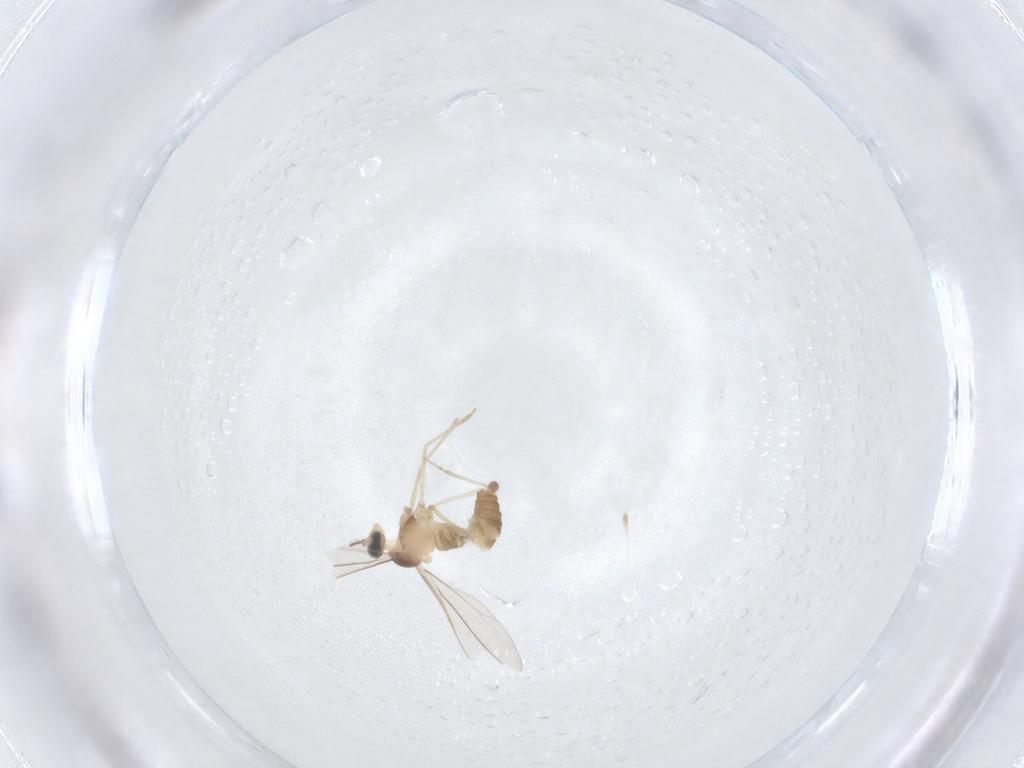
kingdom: Animalia
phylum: Arthropoda
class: Insecta
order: Diptera
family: Cecidomyiidae
